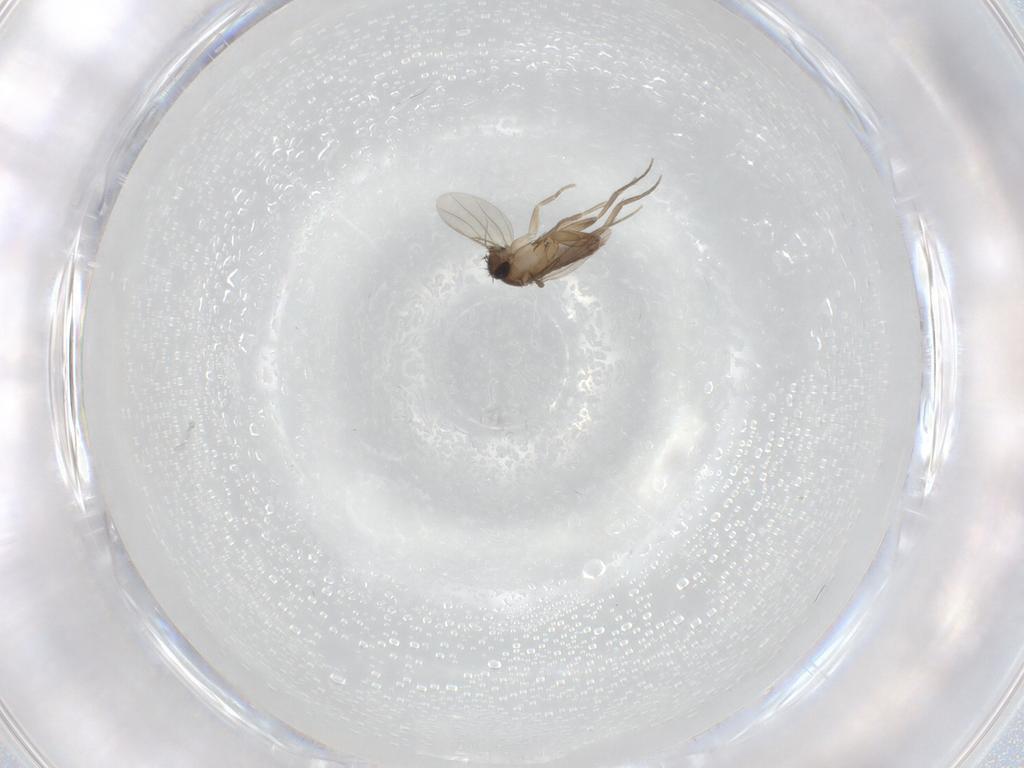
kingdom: Animalia
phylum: Arthropoda
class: Insecta
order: Diptera
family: Phoridae
